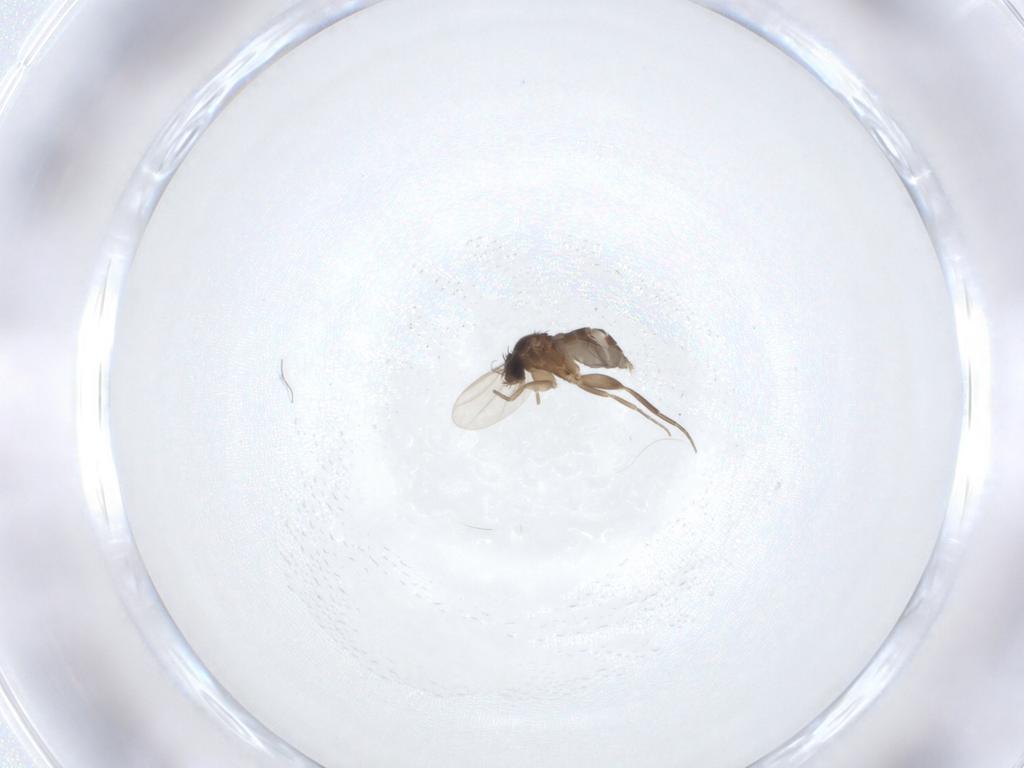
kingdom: Animalia
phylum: Arthropoda
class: Insecta
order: Diptera
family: Phoridae
